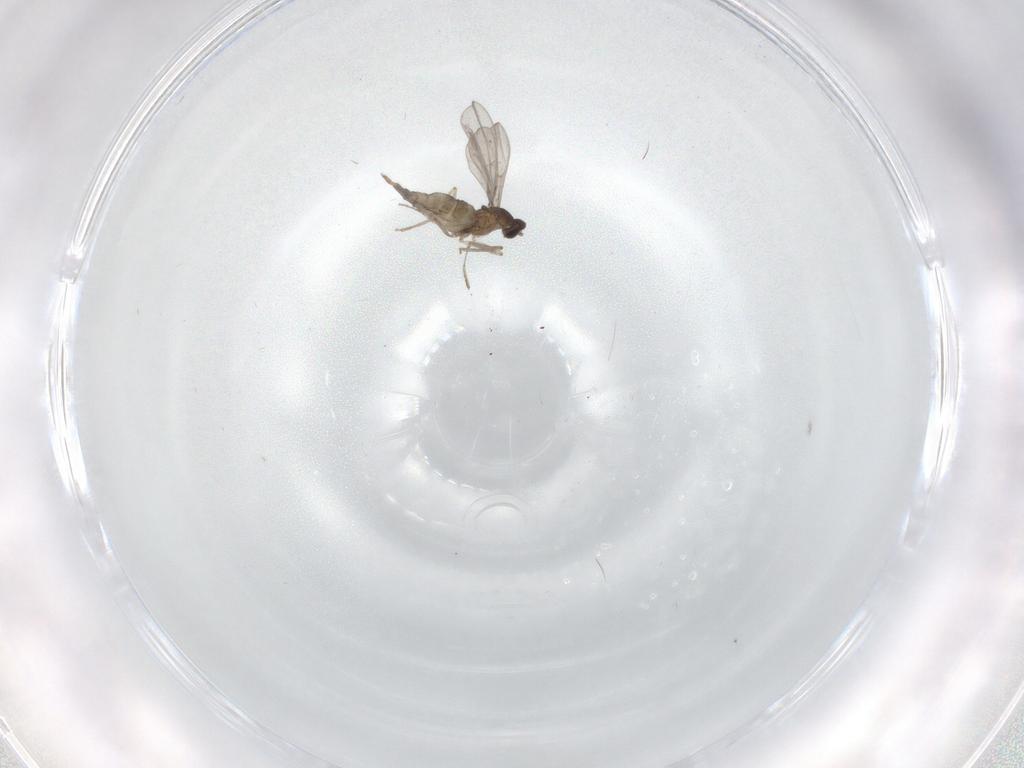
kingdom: Animalia
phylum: Arthropoda
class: Insecta
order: Diptera
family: Cecidomyiidae
